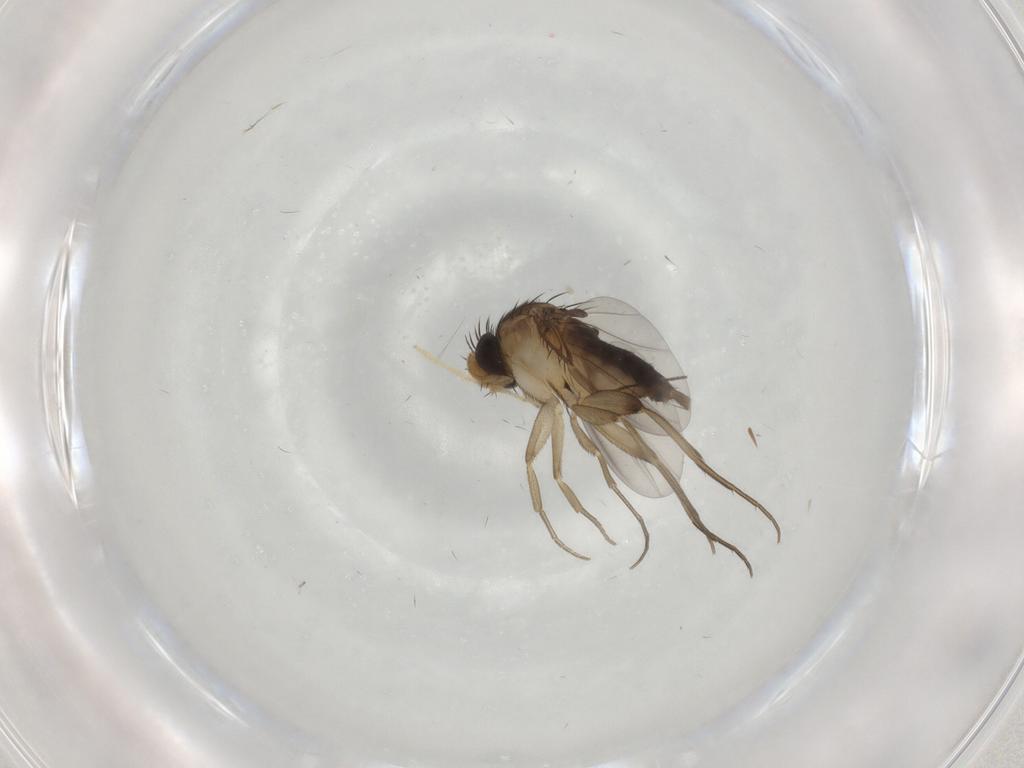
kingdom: Animalia
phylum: Arthropoda
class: Insecta
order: Diptera
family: Phoridae
